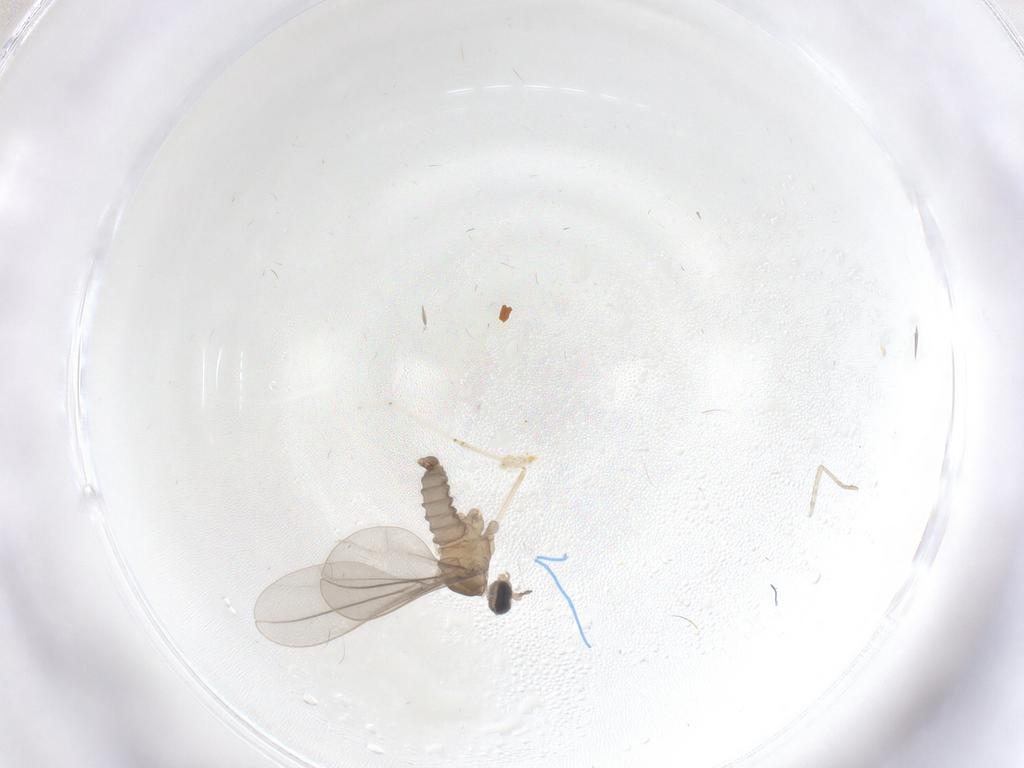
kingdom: Animalia
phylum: Arthropoda
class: Insecta
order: Diptera
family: Cecidomyiidae
